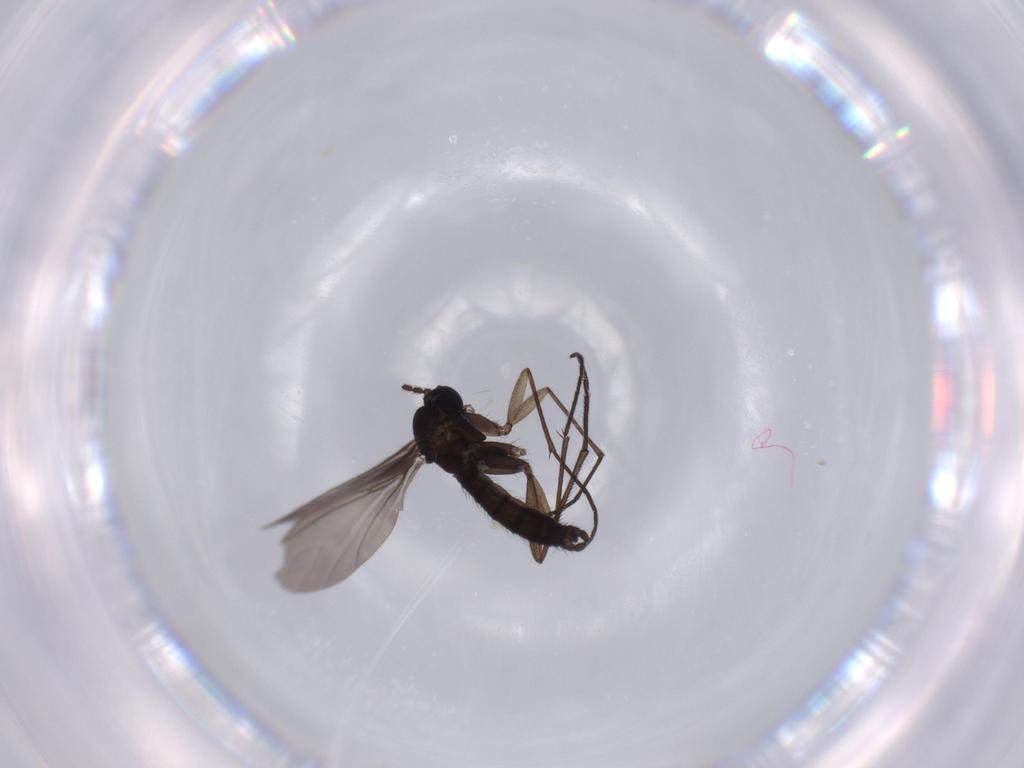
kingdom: Animalia
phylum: Arthropoda
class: Insecta
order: Diptera
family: Sciaridae
